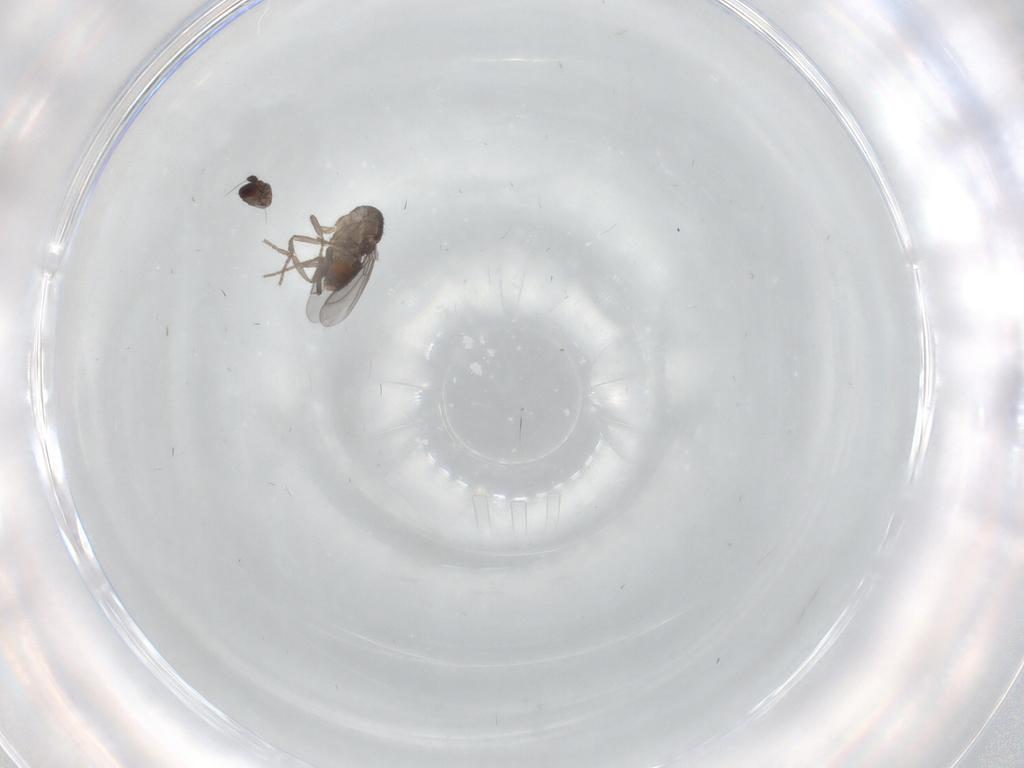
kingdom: Animalia
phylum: Arthropoda
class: Insecta
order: Diptera
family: Sphaeroceridae
